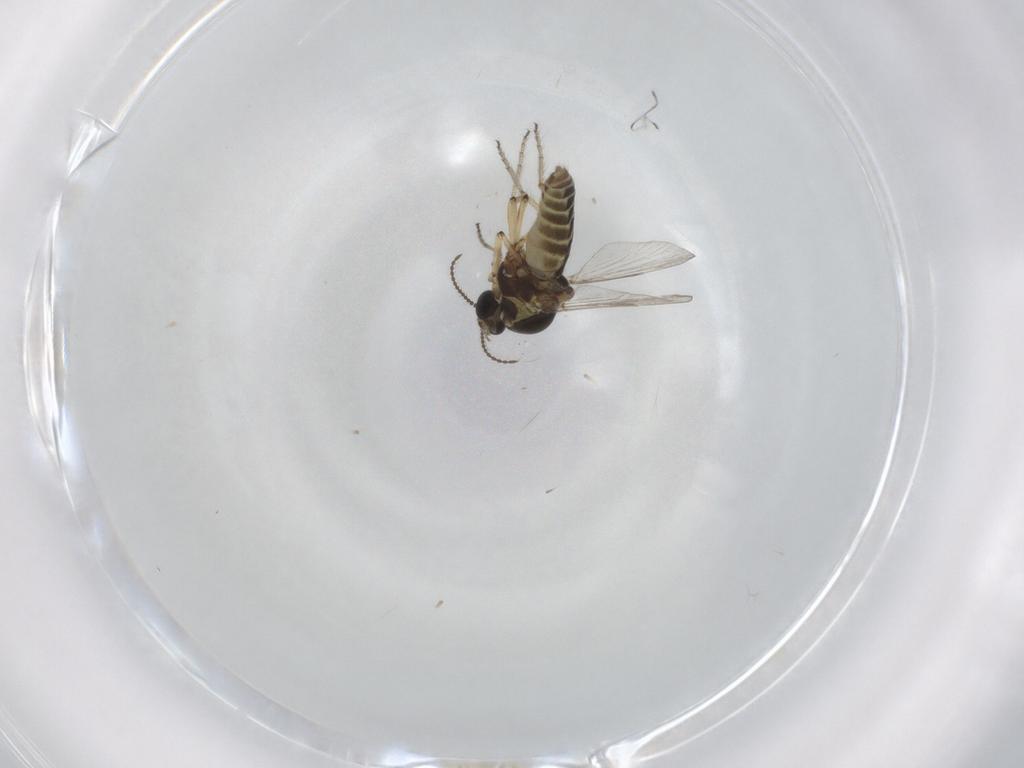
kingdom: Animalia
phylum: Arthropoda
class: Insecta
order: Diptera
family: Ceratopogonidae
